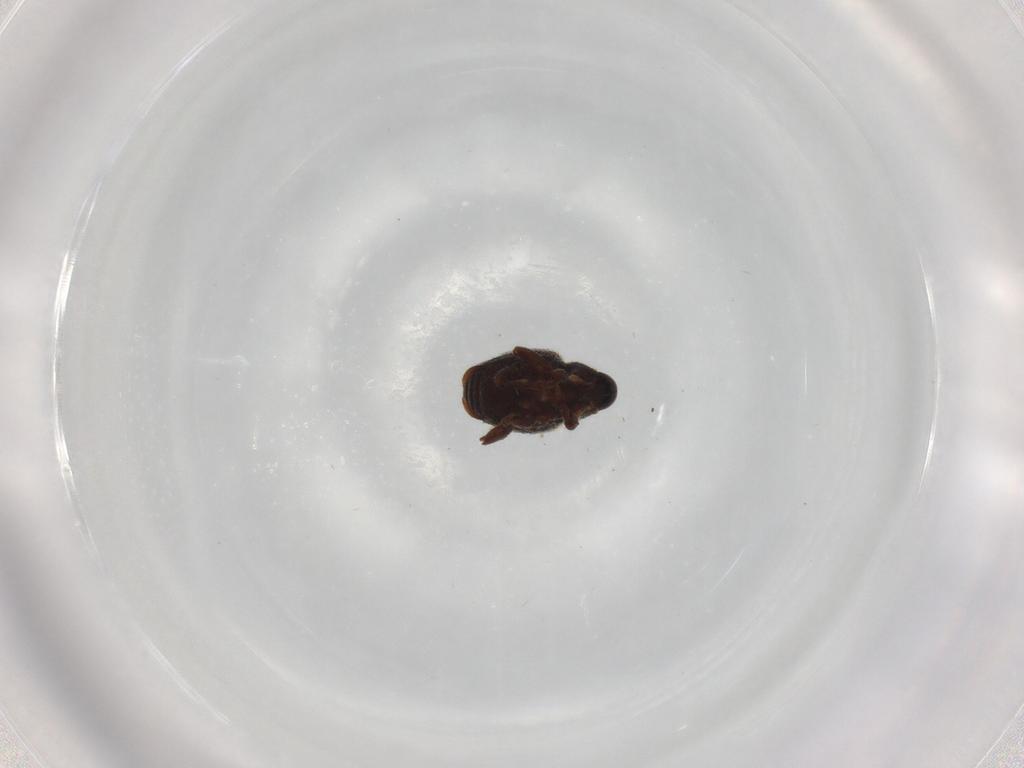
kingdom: Animalia
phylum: Arthropoda
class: Insecta
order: Coleoptera
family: Curculionidae
